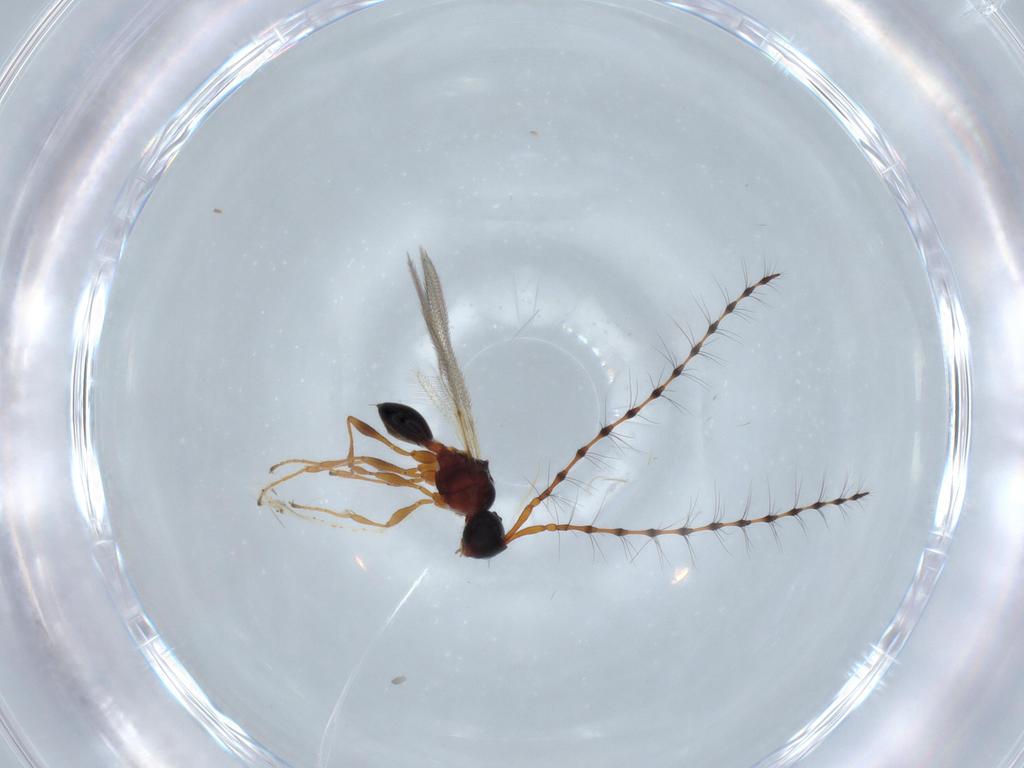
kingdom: Animalia
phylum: Arthropoda
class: Insecta
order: Hymenoptera
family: Diapriidae
